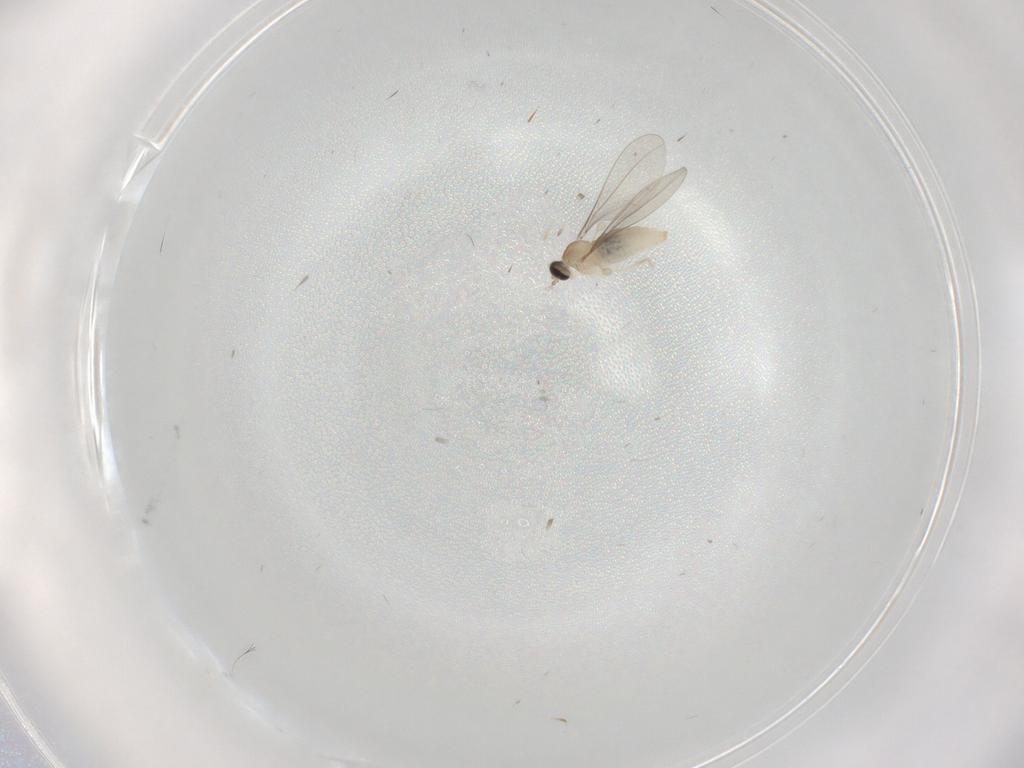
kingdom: Animalia
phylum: Arthropoda
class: Insecta
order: Diptera
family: Cecidomyiidae
